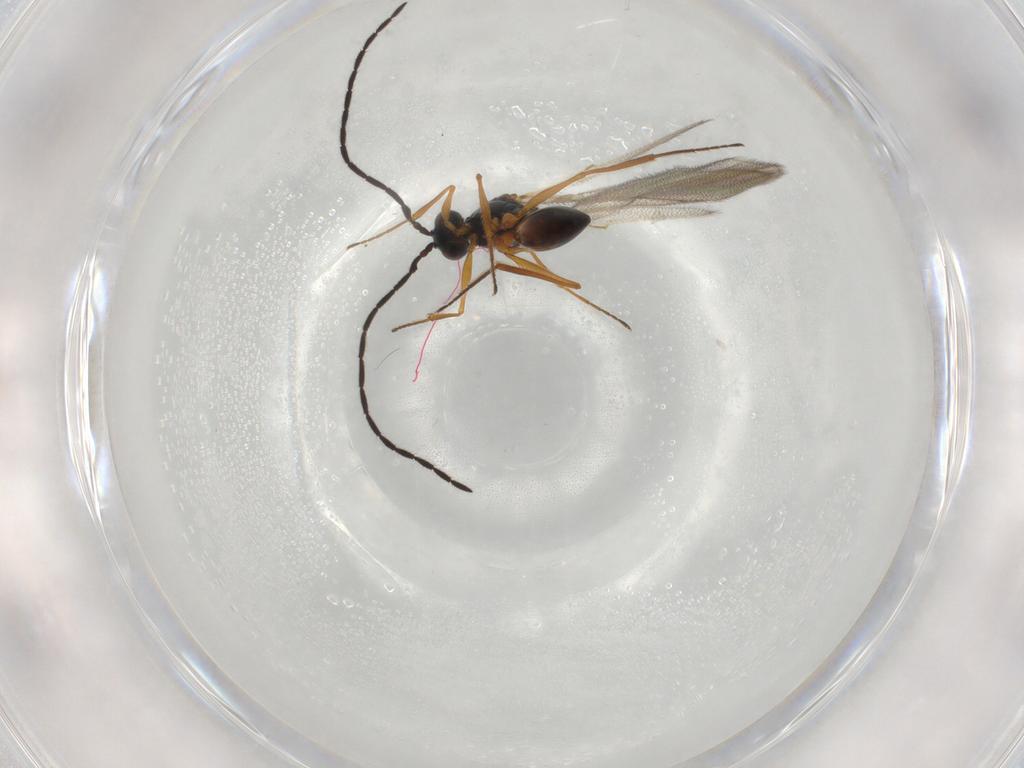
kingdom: Animalia
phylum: Arthropoda
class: Insecta
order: Hymenoptera
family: Figitidae
